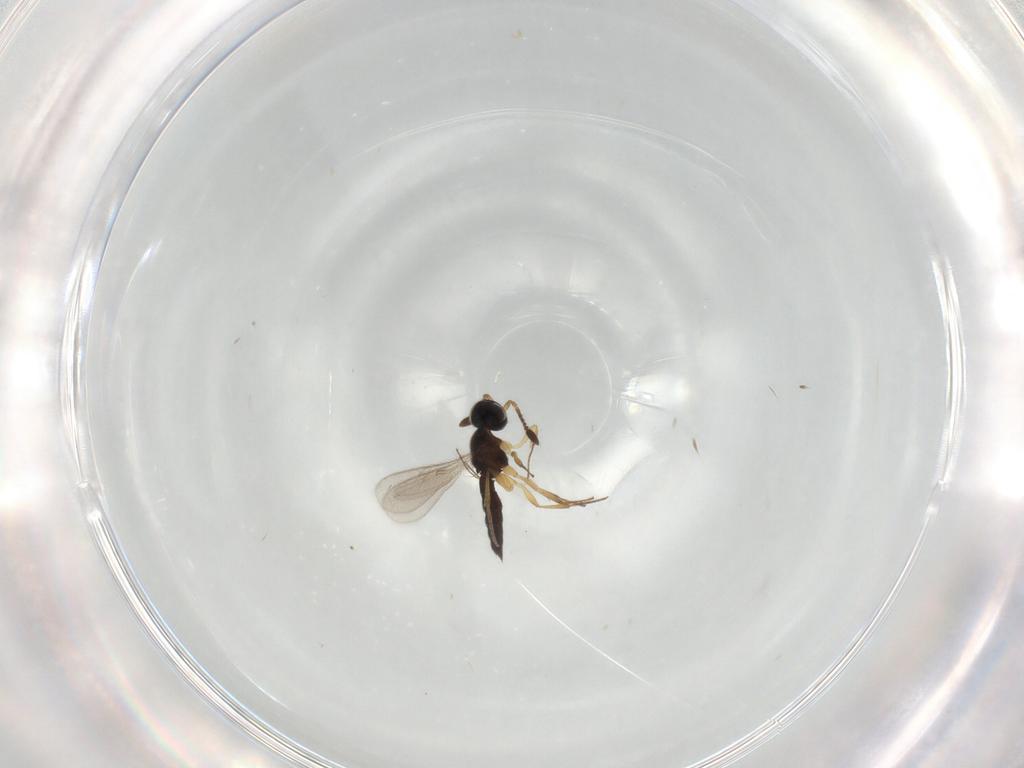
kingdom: Animalia
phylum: Arthropoda
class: Insecta
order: Hymenoptera
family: Scelionidae
